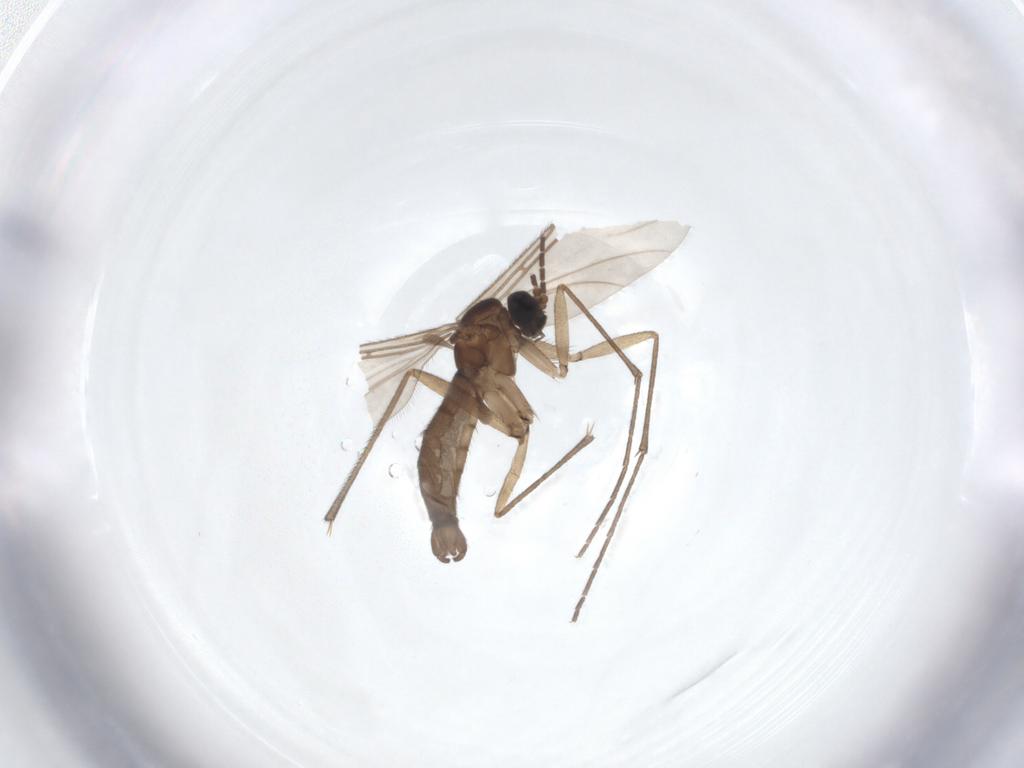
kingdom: Animalia
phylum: Arthropoda
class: Insecta
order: Diptera
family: Sciaridae
